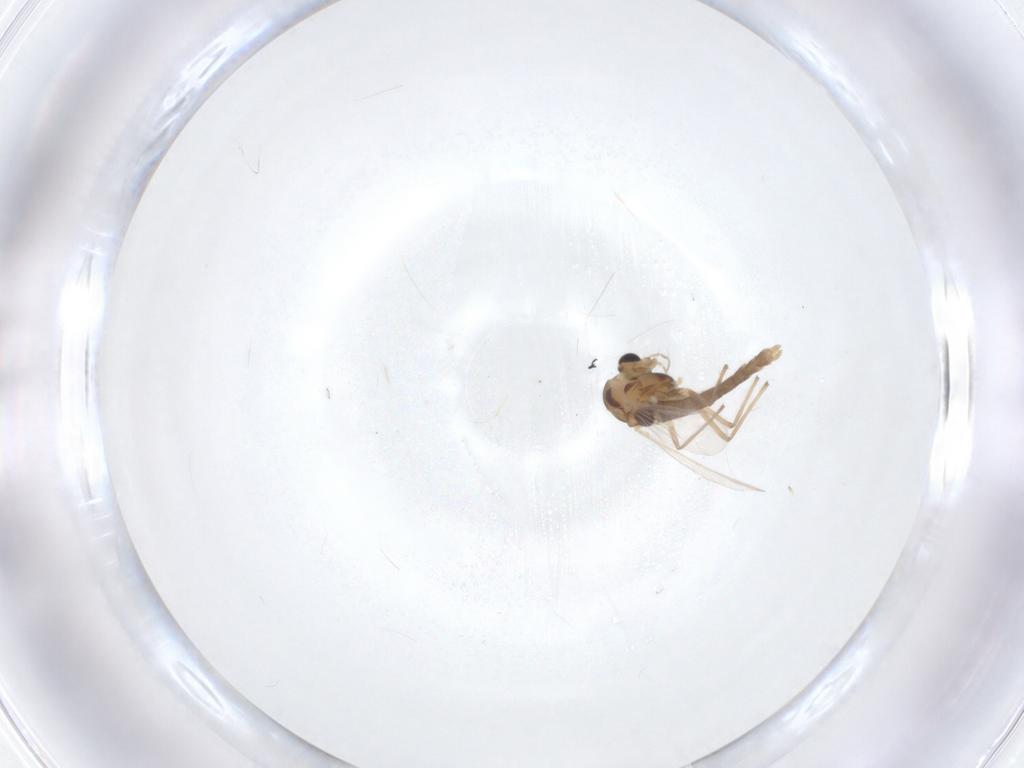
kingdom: Animalia
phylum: Arthropoda
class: Insecta
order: Diptera
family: Chironomidae
